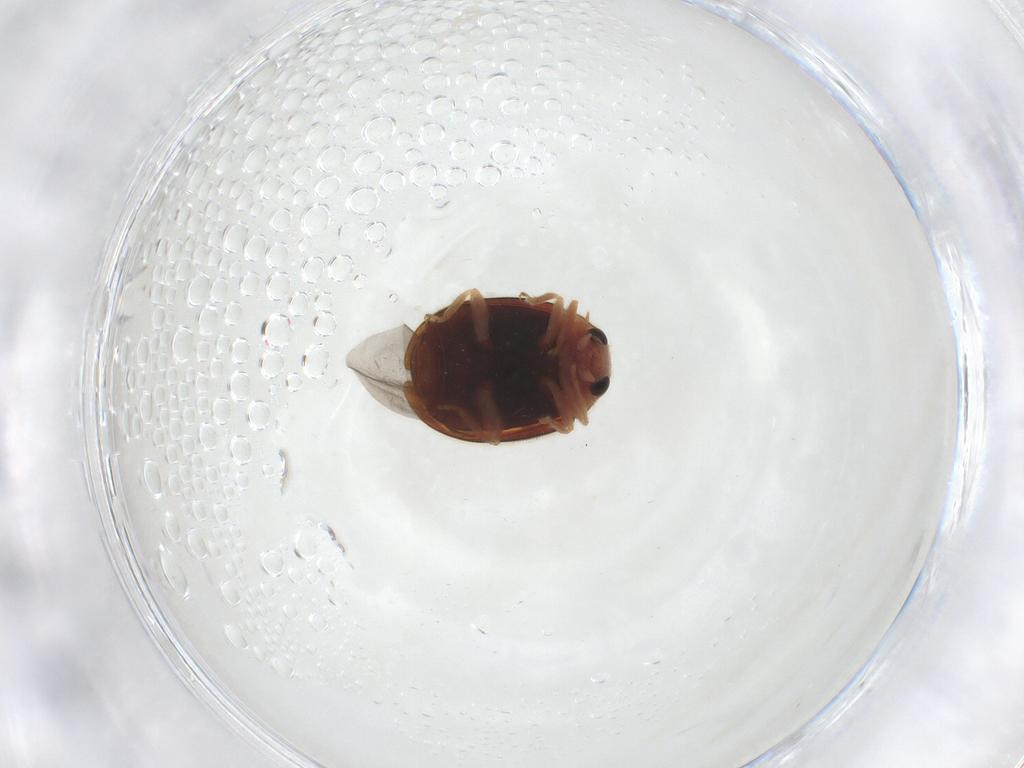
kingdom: Animalia
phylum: Arthropoda
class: Insecta
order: Coleoptera
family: Coccinellidae
